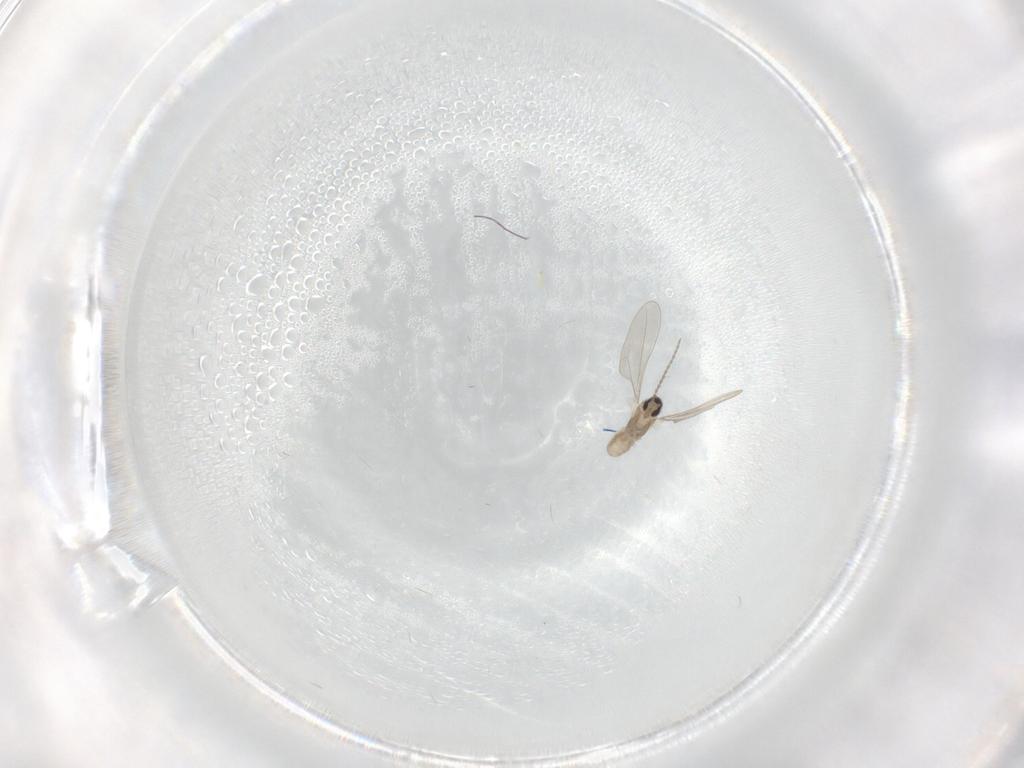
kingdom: Animalia
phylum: Arthropoda
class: Insecta
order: Diptera
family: Cecidomyiidae
